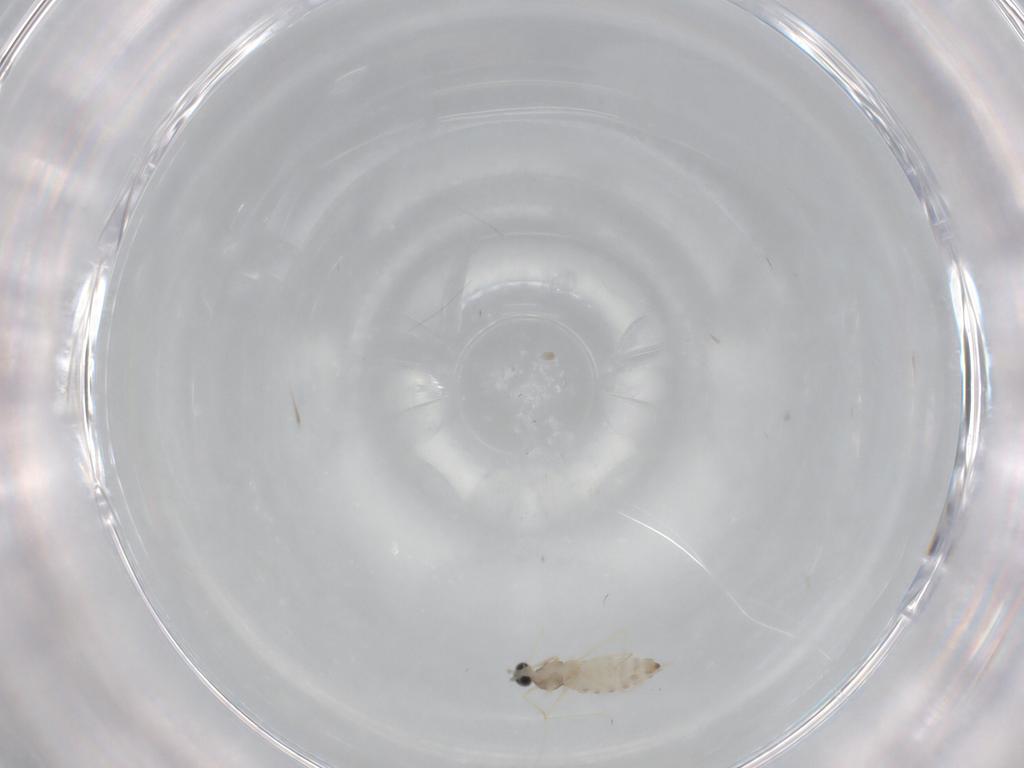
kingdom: Animalia
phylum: Arthropoda
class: Insecta
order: Diptera
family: Cecidomyiidae
